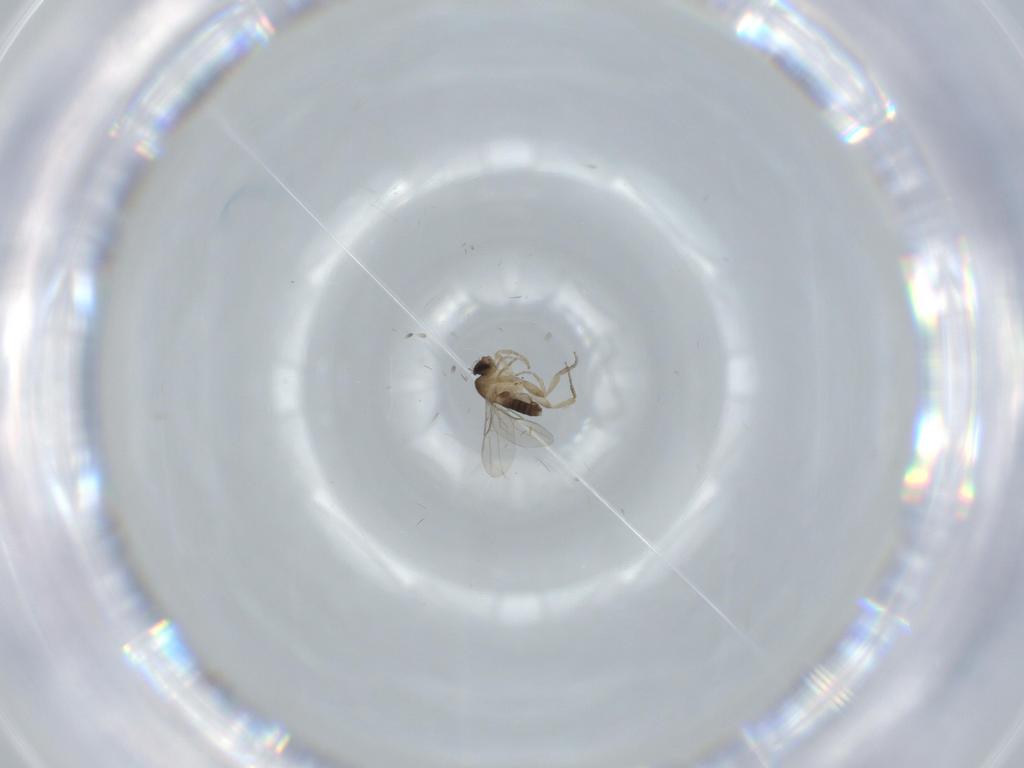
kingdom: Animalia
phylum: Arthropoda
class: Insecta
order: Diptera
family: Phoridae
